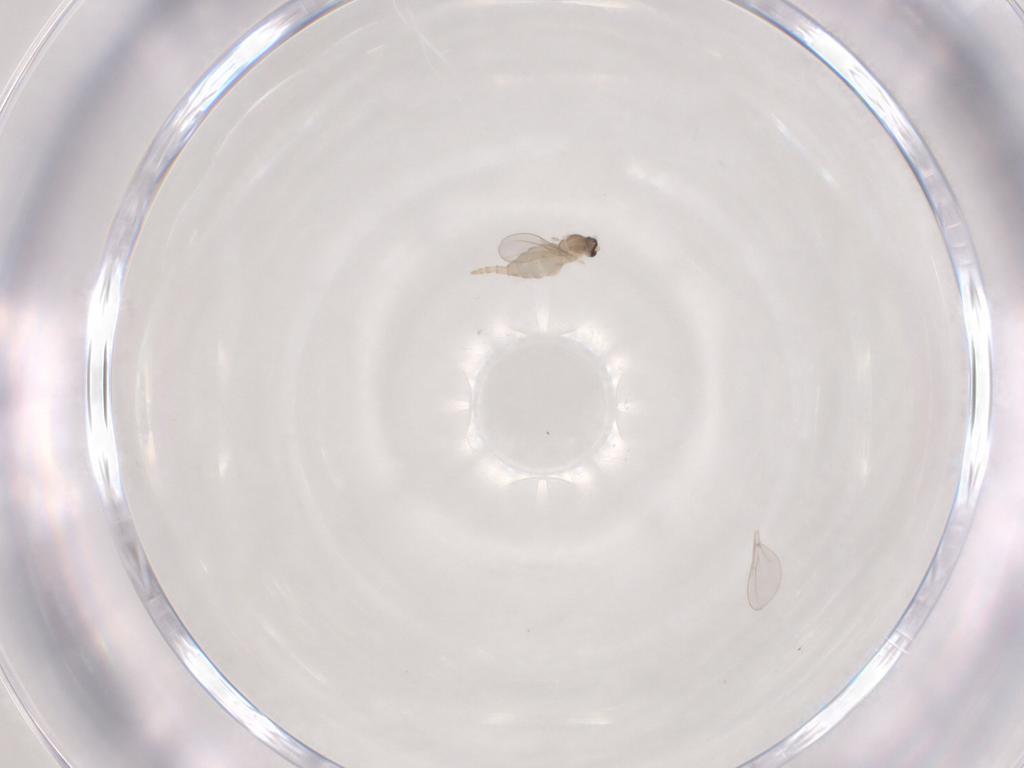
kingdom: Animalia
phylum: Arthropoda
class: Insecta
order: Diptera
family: Cecidomyiidae
